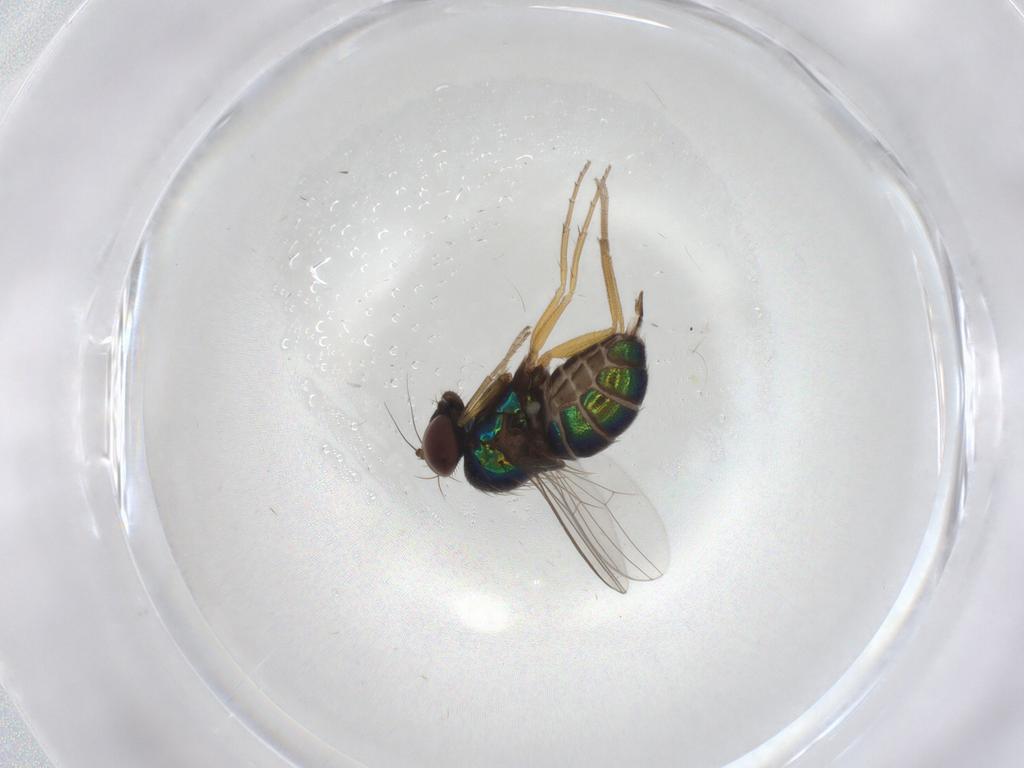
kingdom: Animalia
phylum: Arthropoda
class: Insecta
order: Diptera
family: Dolichopodidae
